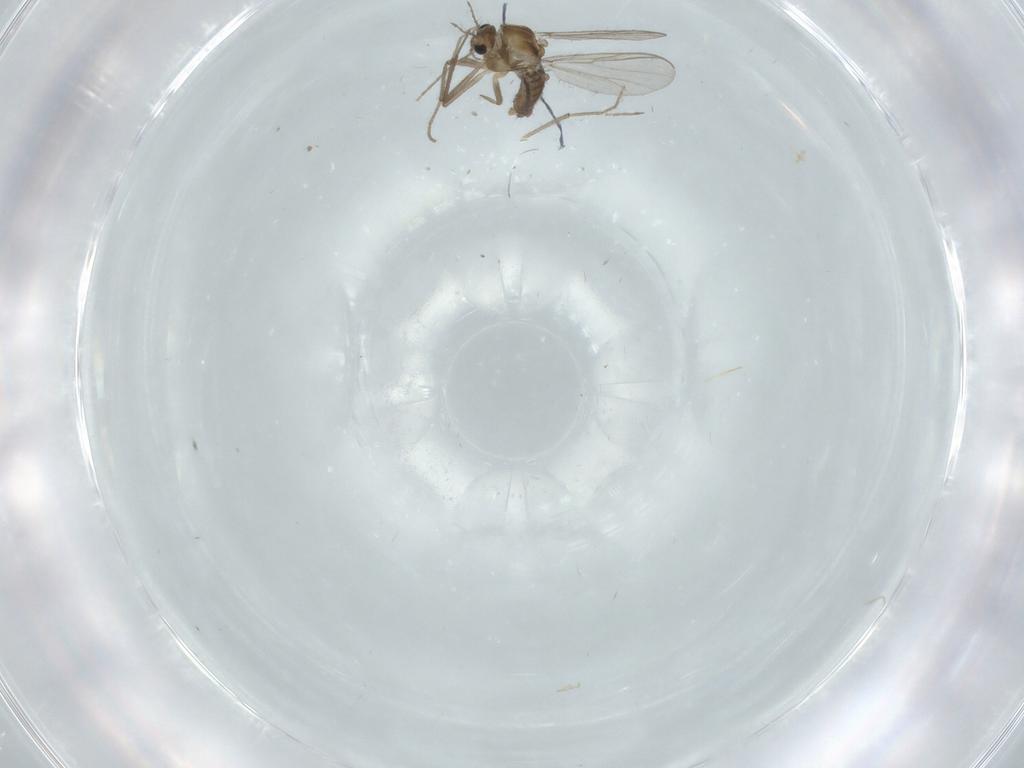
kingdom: Animalia
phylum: Arthropoda
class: Insecta
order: Diptera
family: Chironomidae
